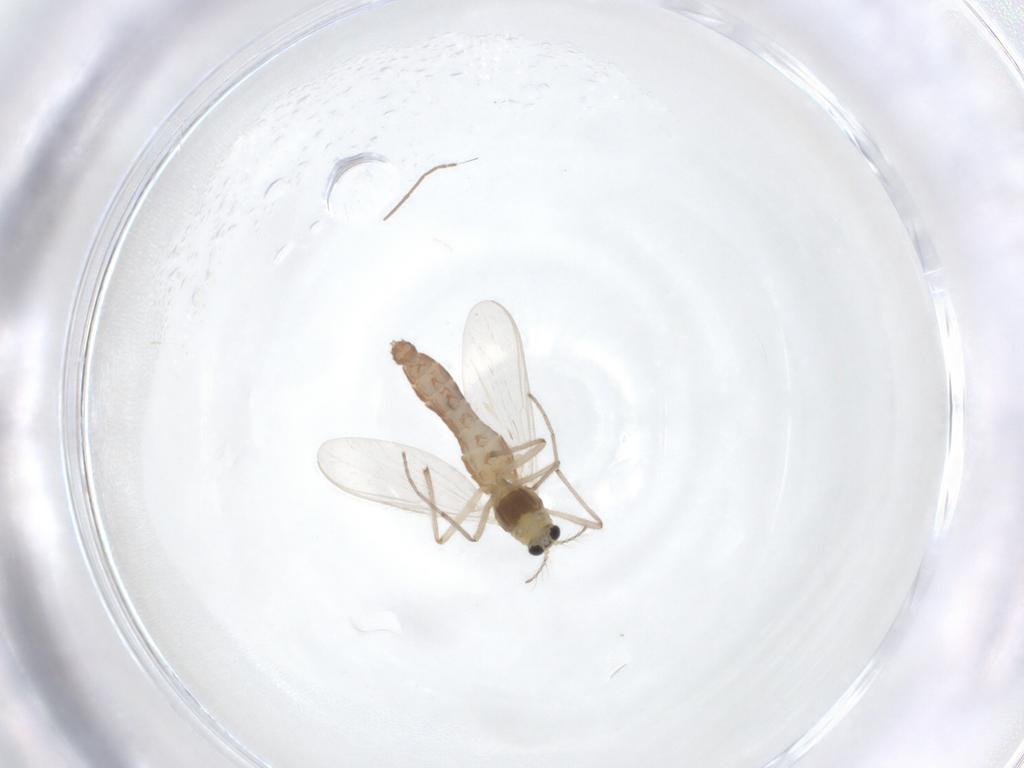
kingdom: Animalia
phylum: Arthropoda
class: Insecta
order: Diptera
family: Chironomidae
